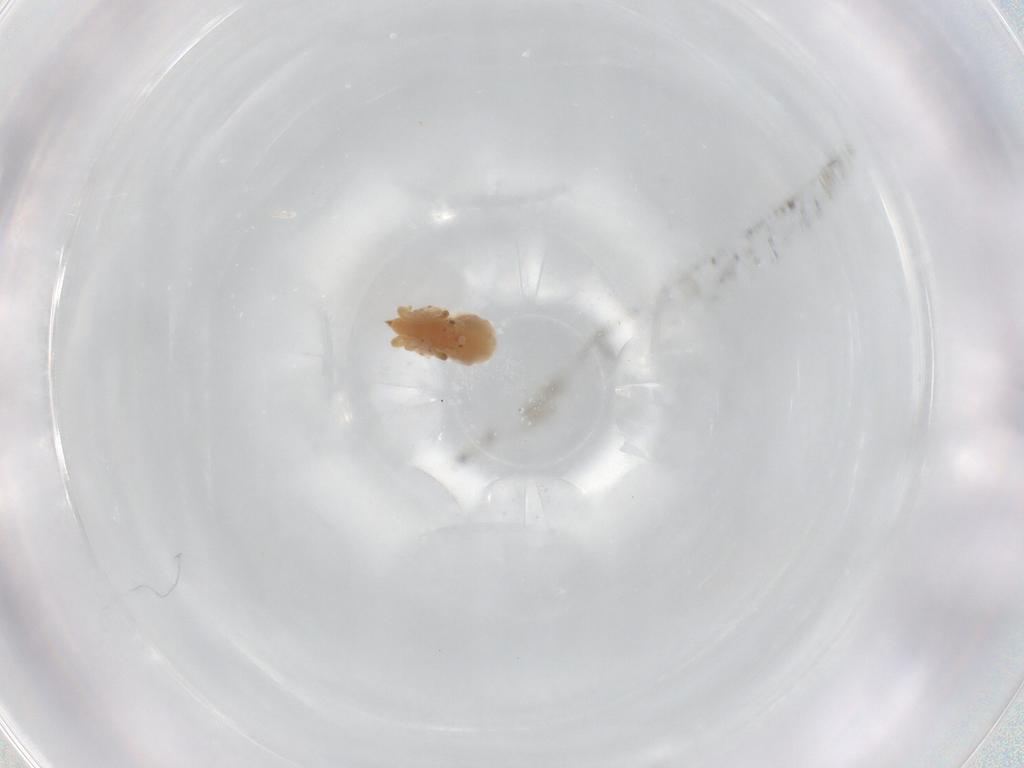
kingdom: Animalia
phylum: Arthropoda
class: Arachnida
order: Trombidiformes
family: Bdellidae
